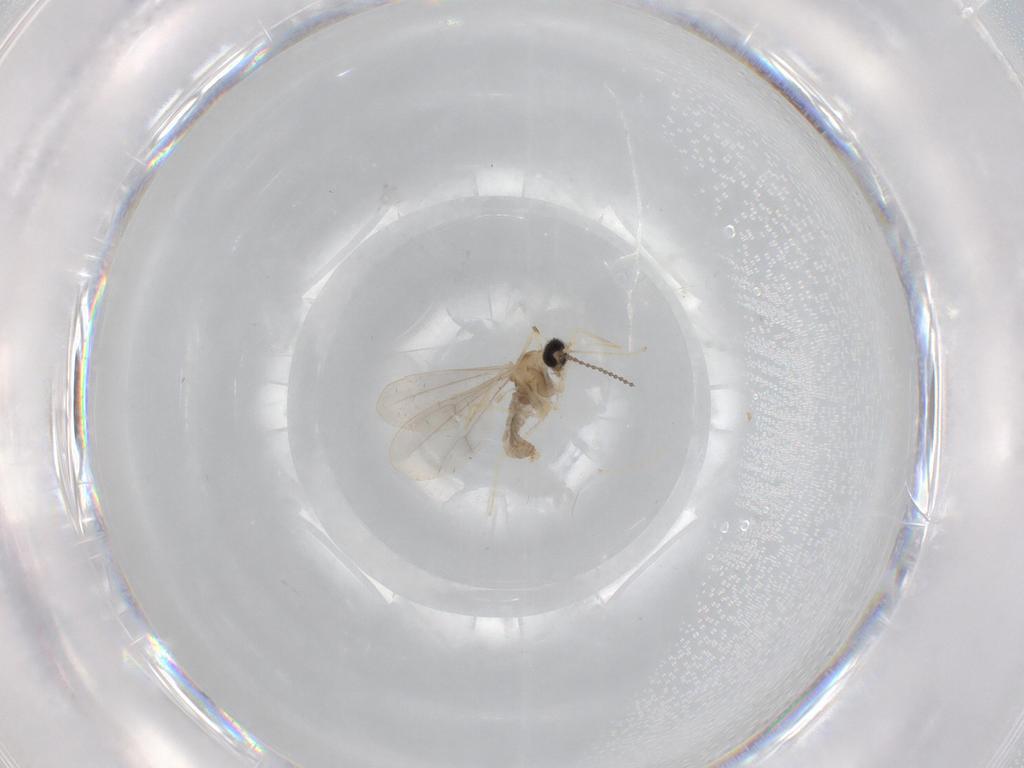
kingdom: Animalia
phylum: Arthropoda
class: Insecta
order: Diptera
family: Cecidomyiidae
